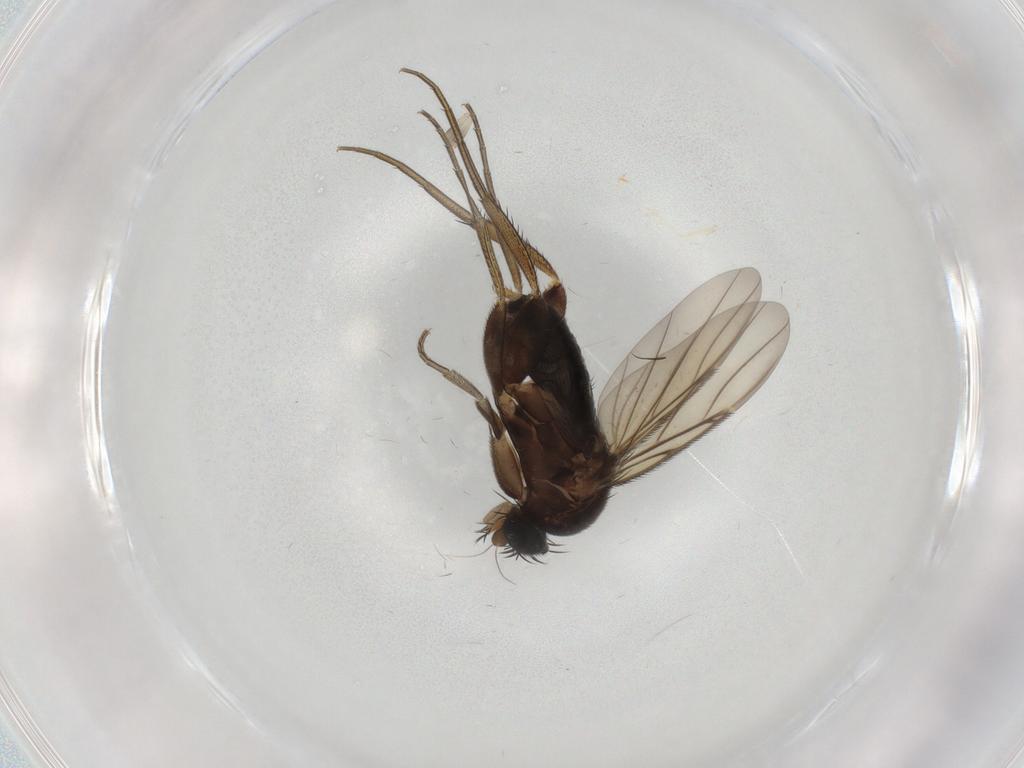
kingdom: Animalia
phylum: Arthropoda
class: Insecta
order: Diptera
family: Phoridae
